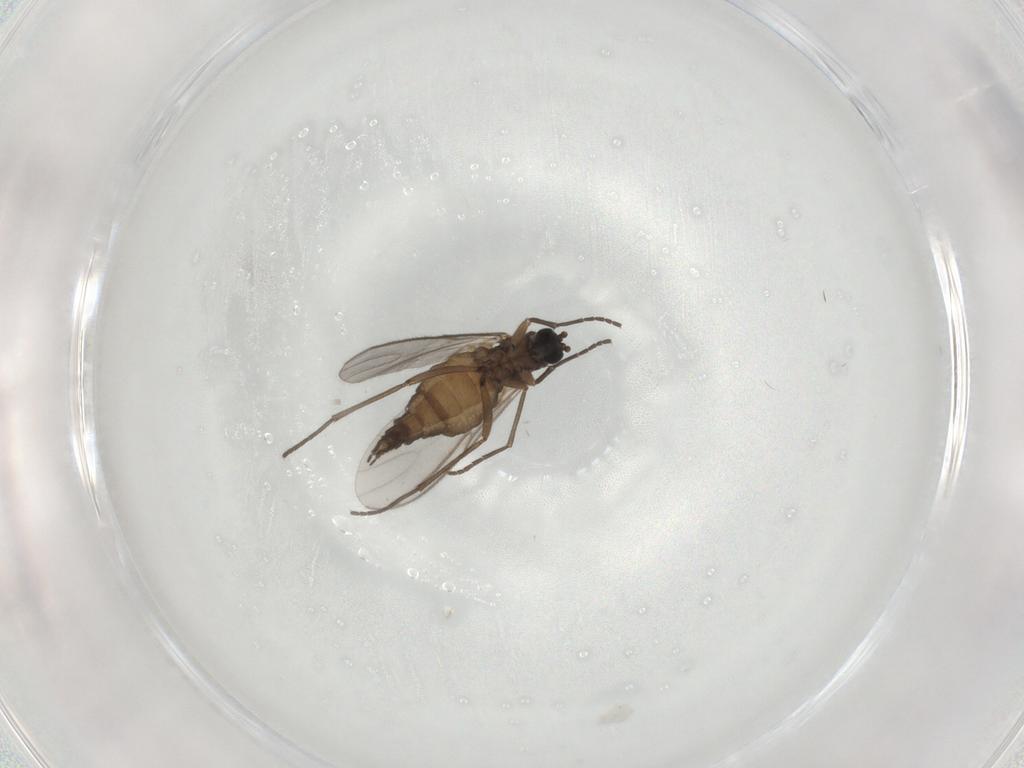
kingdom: Animalia
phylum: Arthropoda
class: Insecta
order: Diptera
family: Sciaridae
